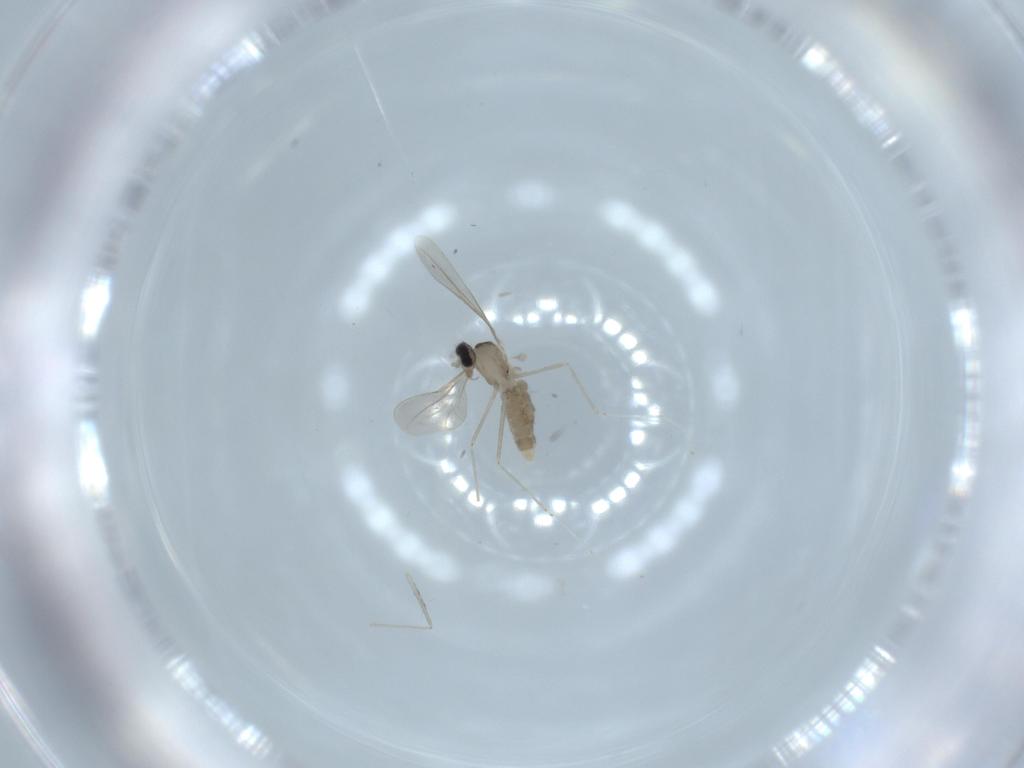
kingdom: Animalia
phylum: Arthropoda
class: Insecta
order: Diptera
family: Cecidomyiidae
